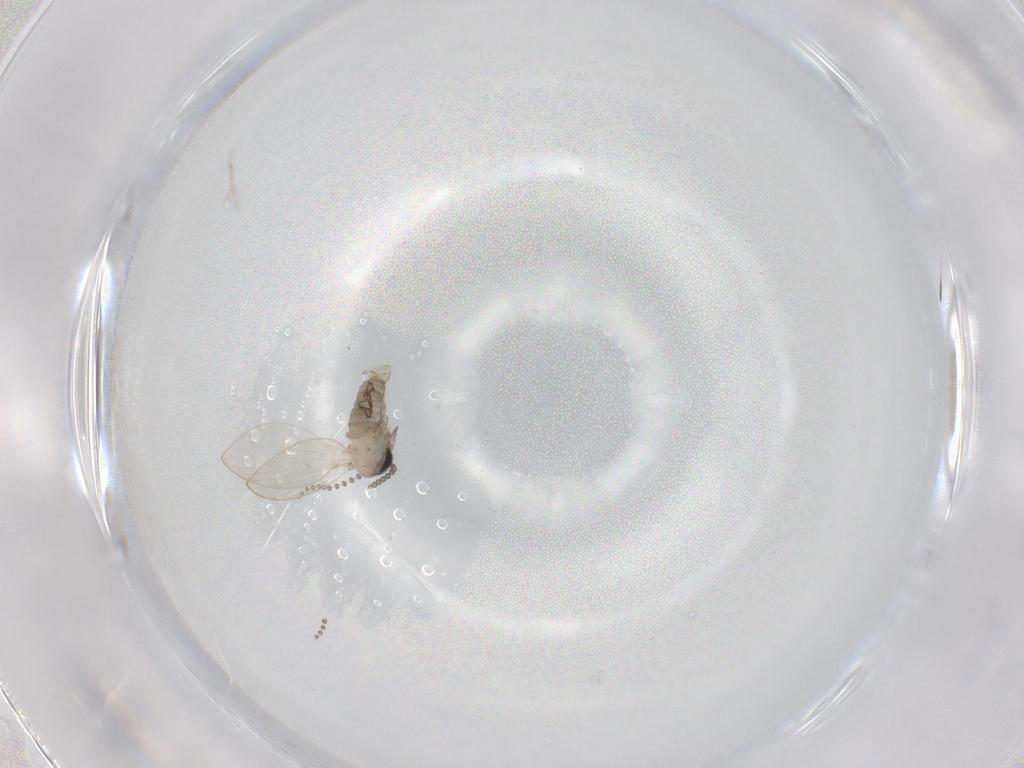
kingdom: Animalia
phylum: Arthropoda
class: Insecta
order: Diptera
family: Psychodidae
